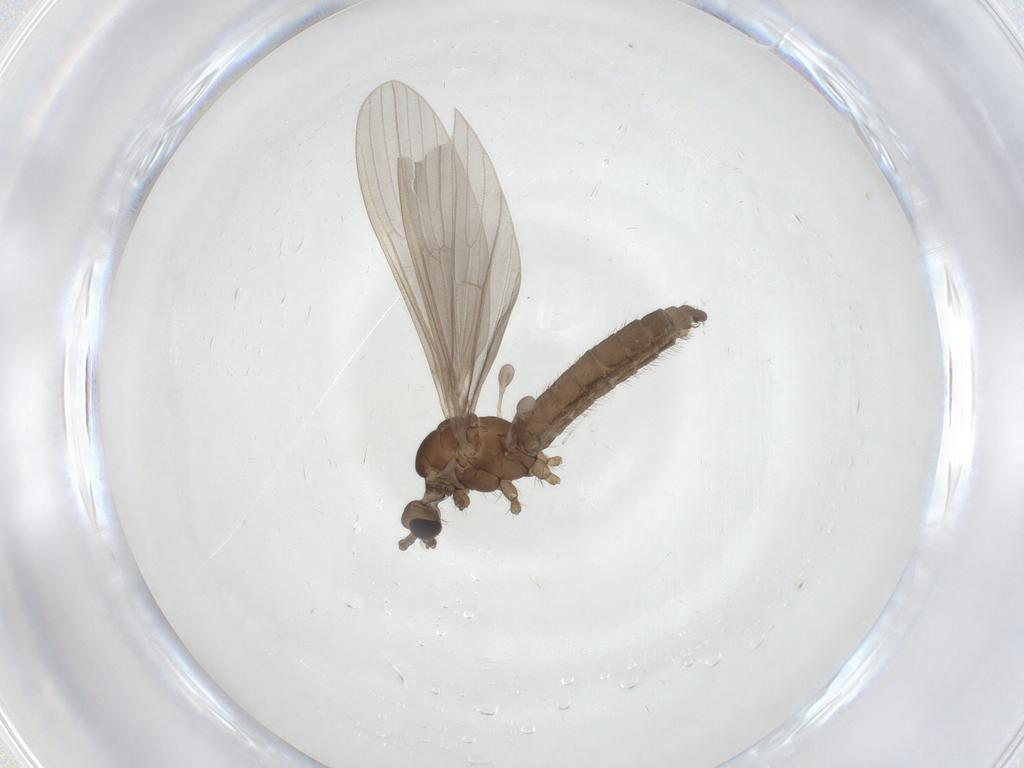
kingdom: Animalia
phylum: Arthropoda
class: Insecta
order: Diptera
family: Limoniidae
